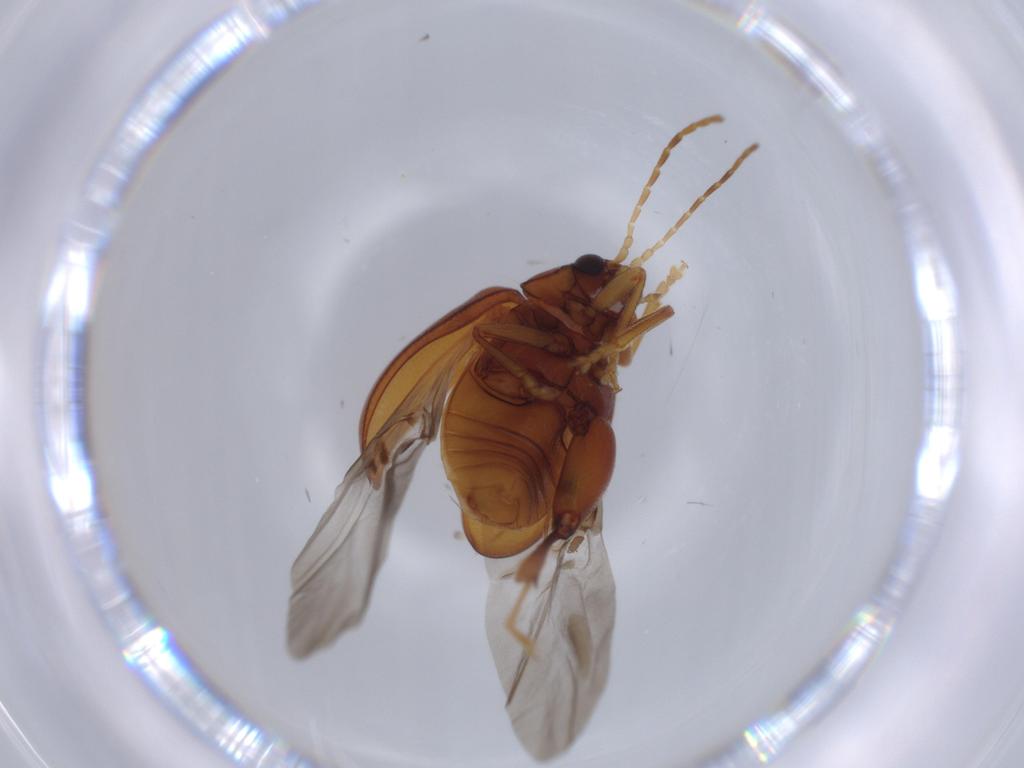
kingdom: Animalia
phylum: Arthropoda
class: Insecta
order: Coleoptera
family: Chrysomelidae
